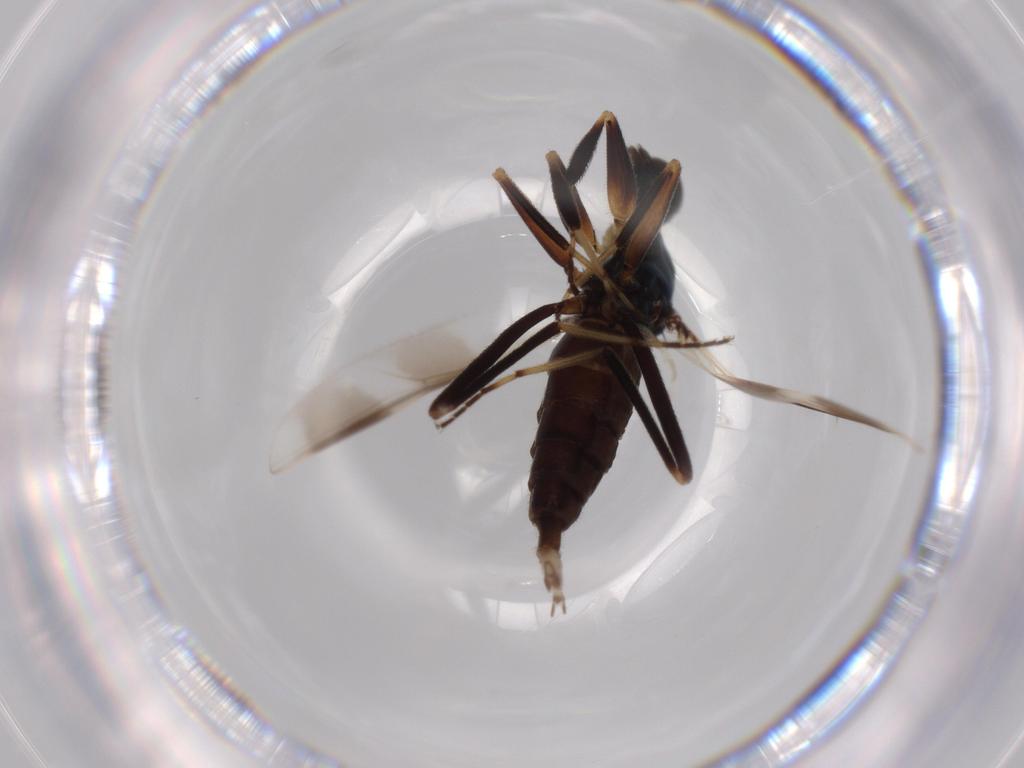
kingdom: Animalia
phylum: Arthropoda
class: Insecta
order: Diptera
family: Hybotidae
